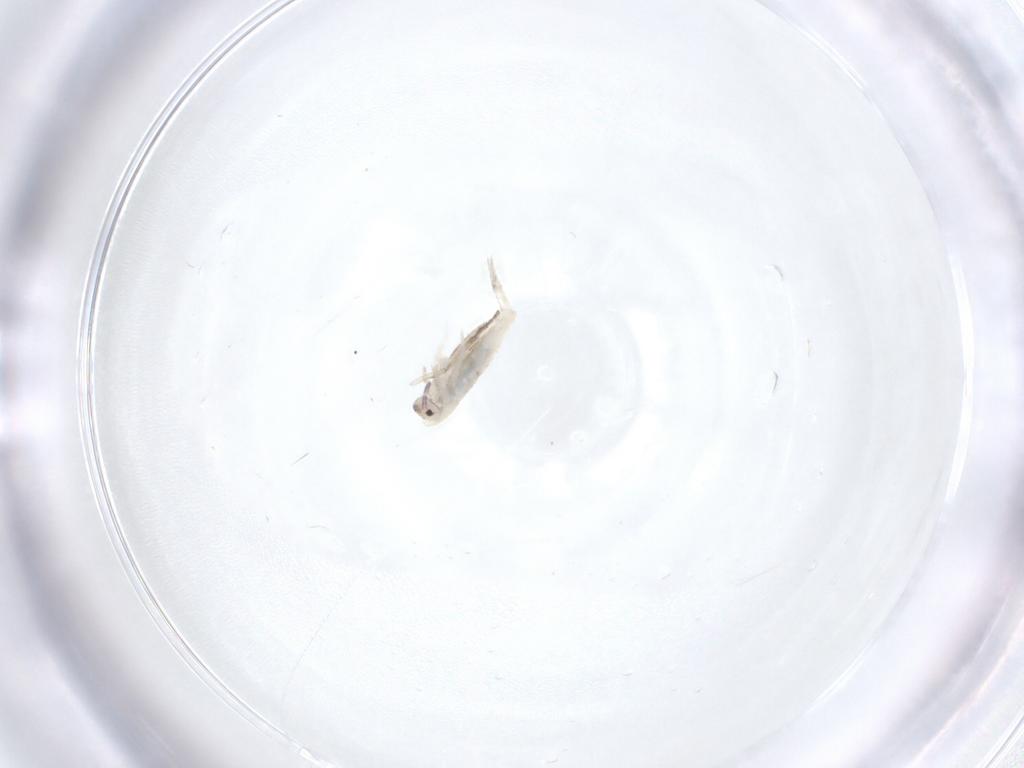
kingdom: Animalia
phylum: Arthropoda
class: Collembola
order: Entomobryomorpha
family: Entomobryidae
